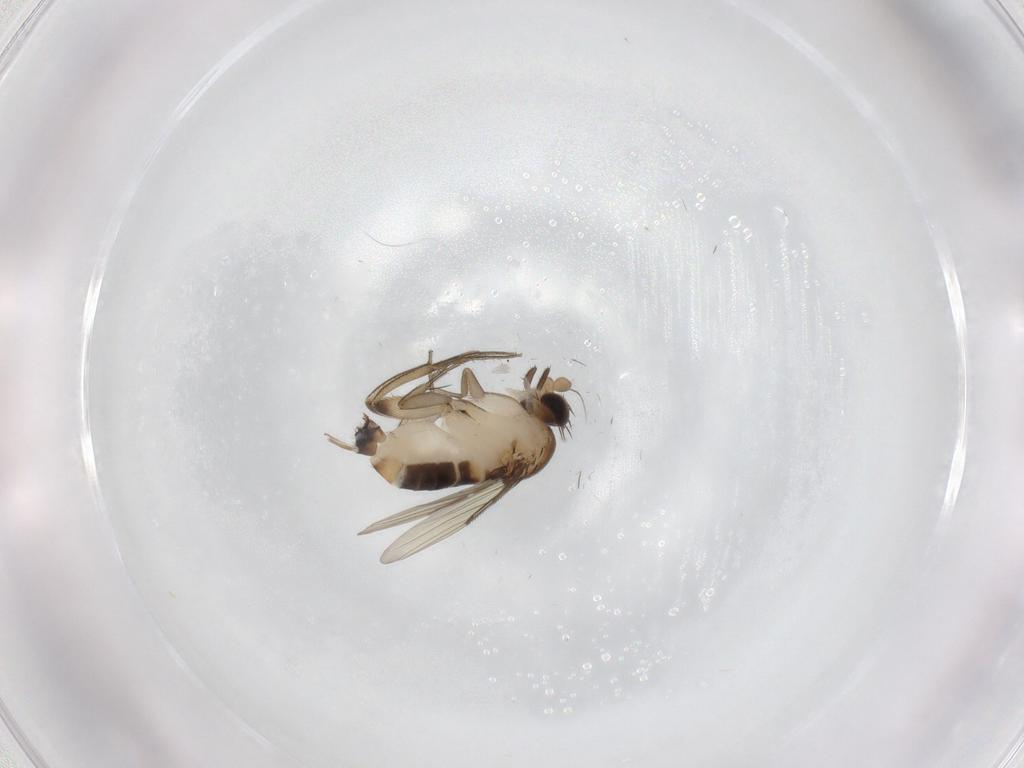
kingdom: Animalia
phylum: Arthropoda
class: Insecta
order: Diptera
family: Phoridae
